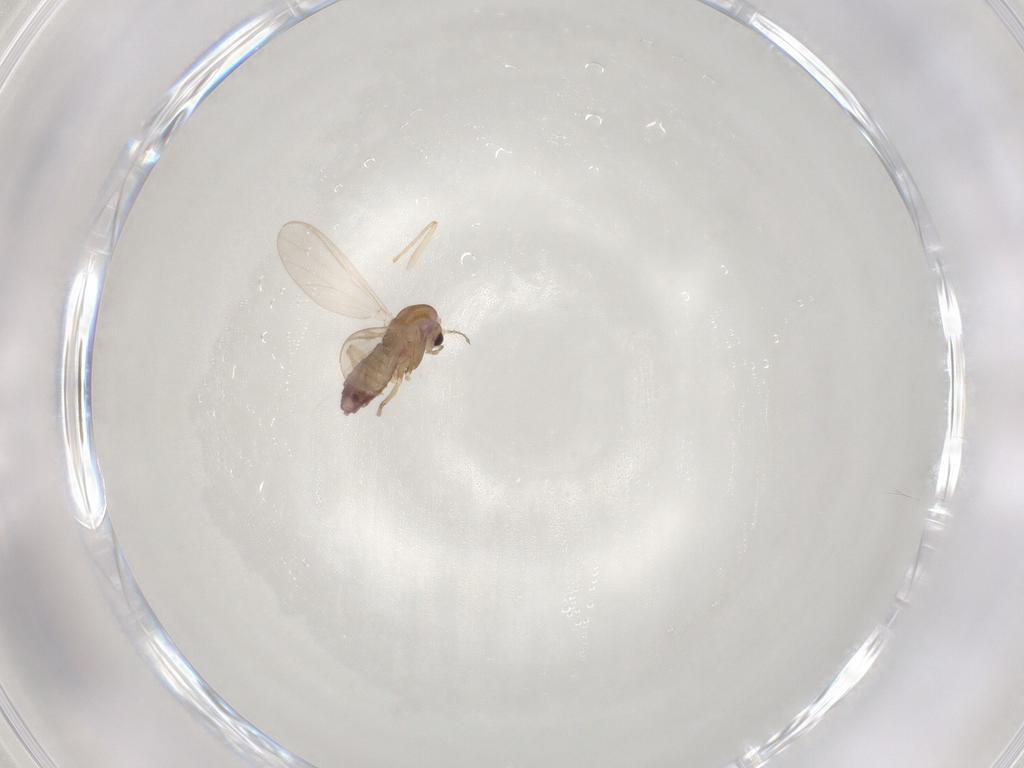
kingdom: Animalia
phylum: Arthropoda
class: Insecta
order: Diptera
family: Chironomidae
